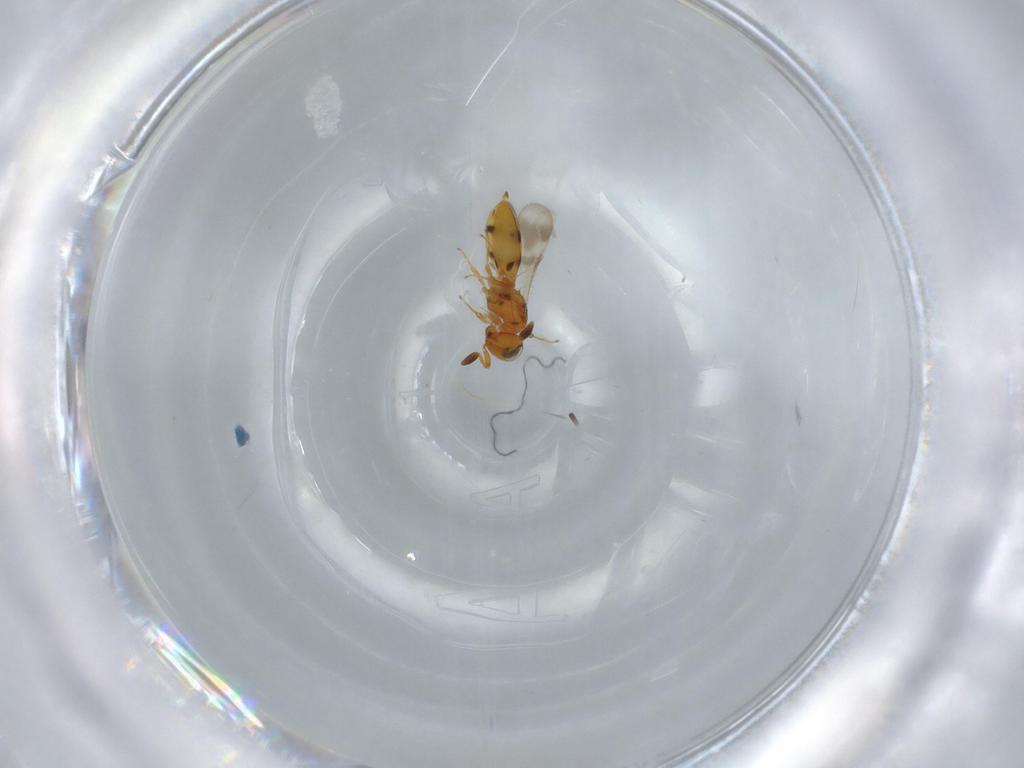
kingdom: Animalia
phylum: Arthropoda
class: Insecta
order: Hymenoptera
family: Scelionidae
